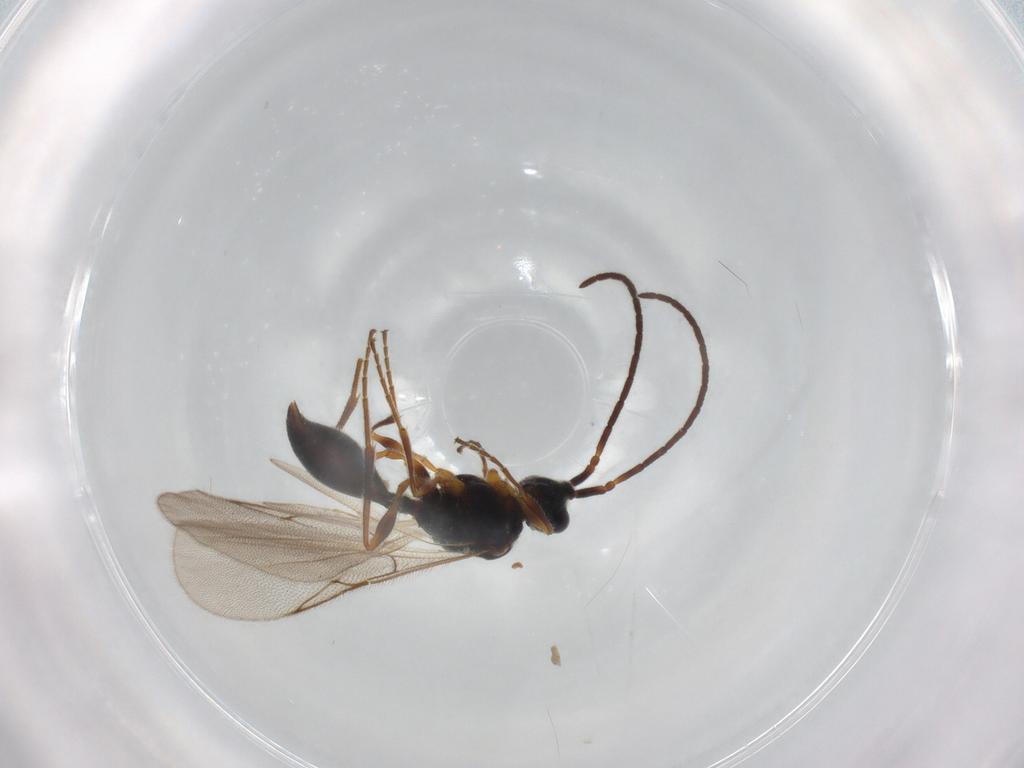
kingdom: Animalia
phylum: Arthropoda
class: Insecta
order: Hymenoptera
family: Diapriidae
